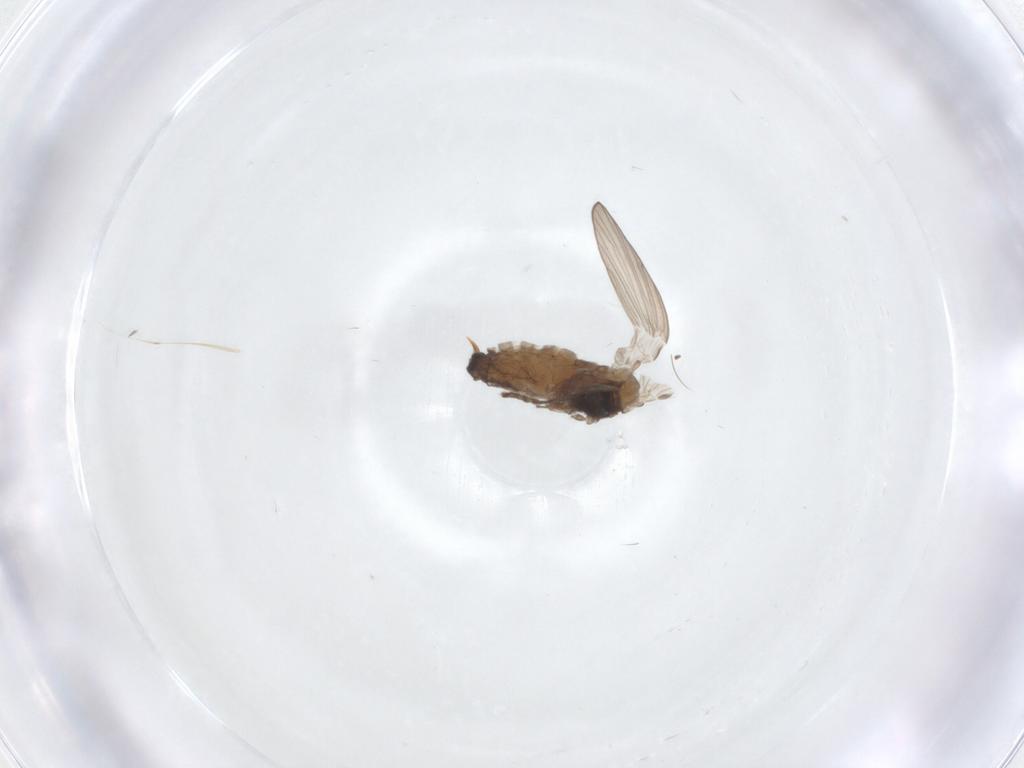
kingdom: Animalia
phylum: Arthropoda
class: Insecta
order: Diptera
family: Psychodidae
